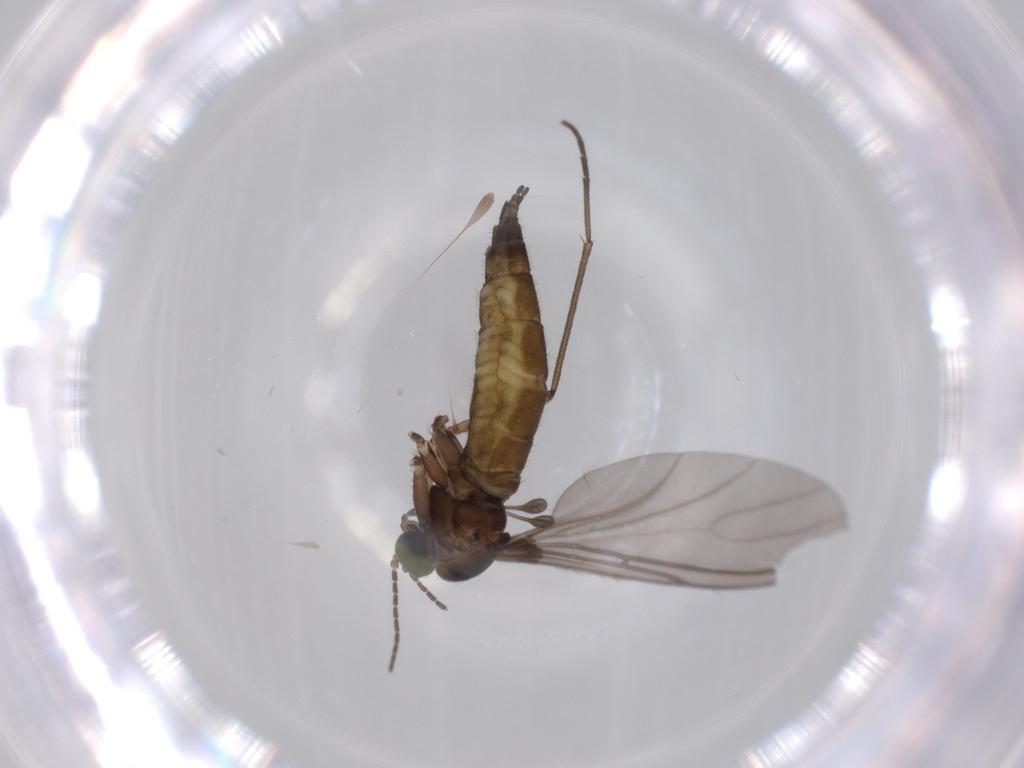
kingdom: Animalia
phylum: Arthropoda
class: Insecta
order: Diptera
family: Sciaridae
